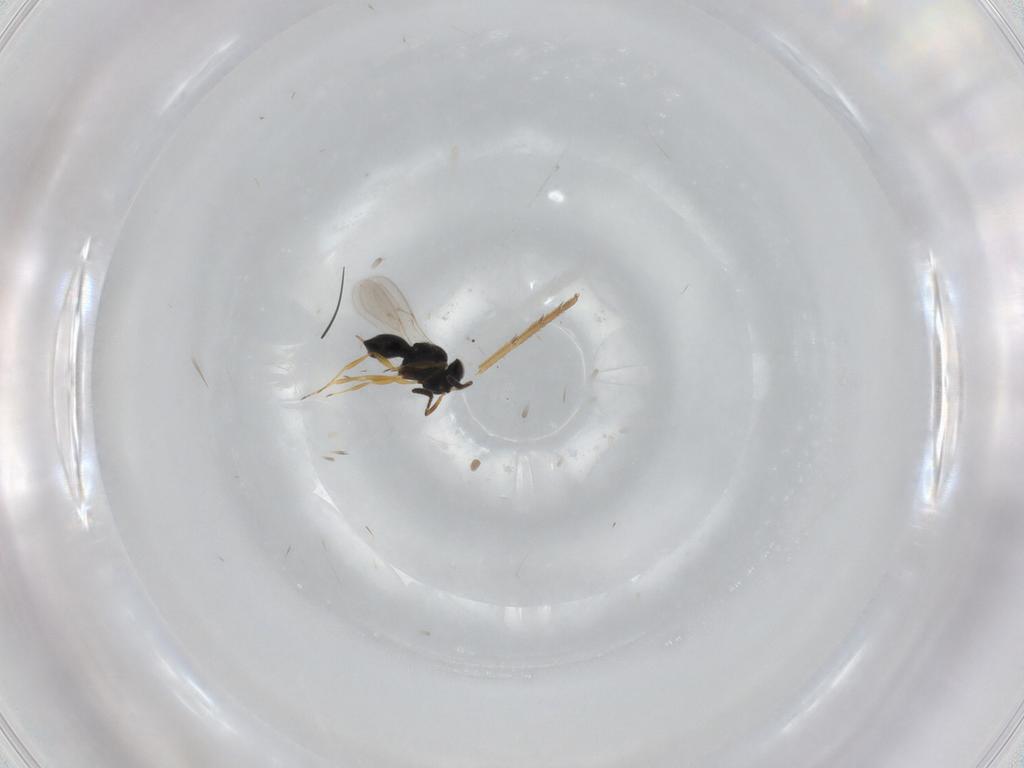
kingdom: Animalia
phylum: Arthropoda
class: Insecta
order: Hymenoptera
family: Scelionidae
